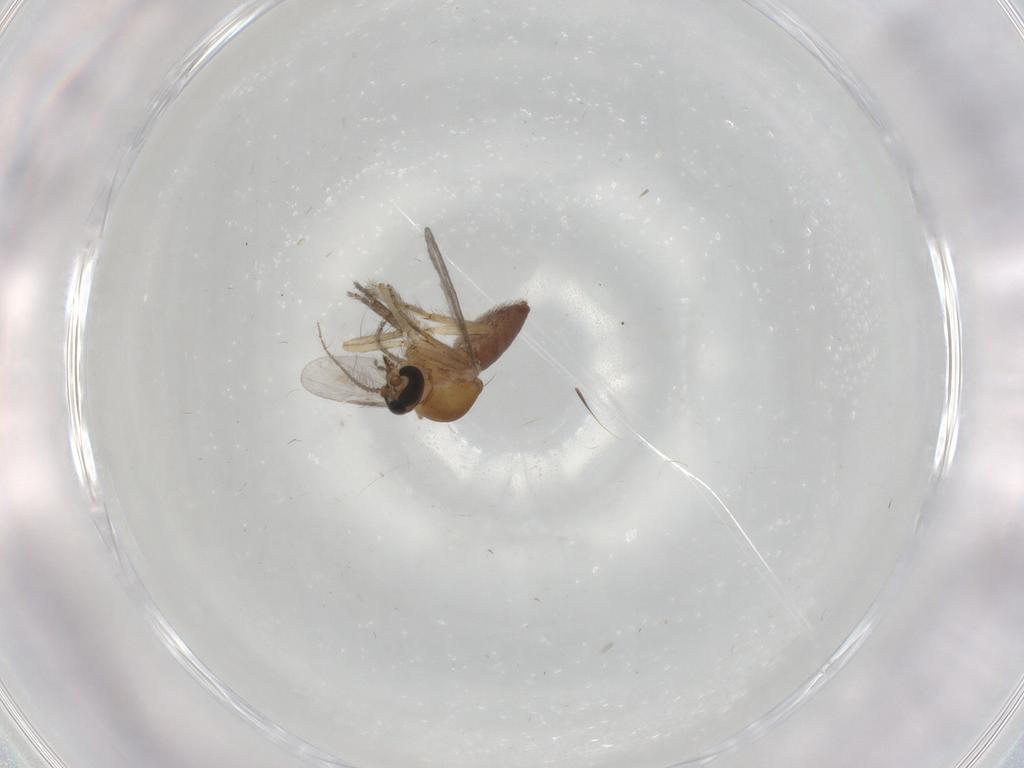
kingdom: Animalia
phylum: Arthropoda
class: Insecta
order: Diptera
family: Ceratopogonidae
